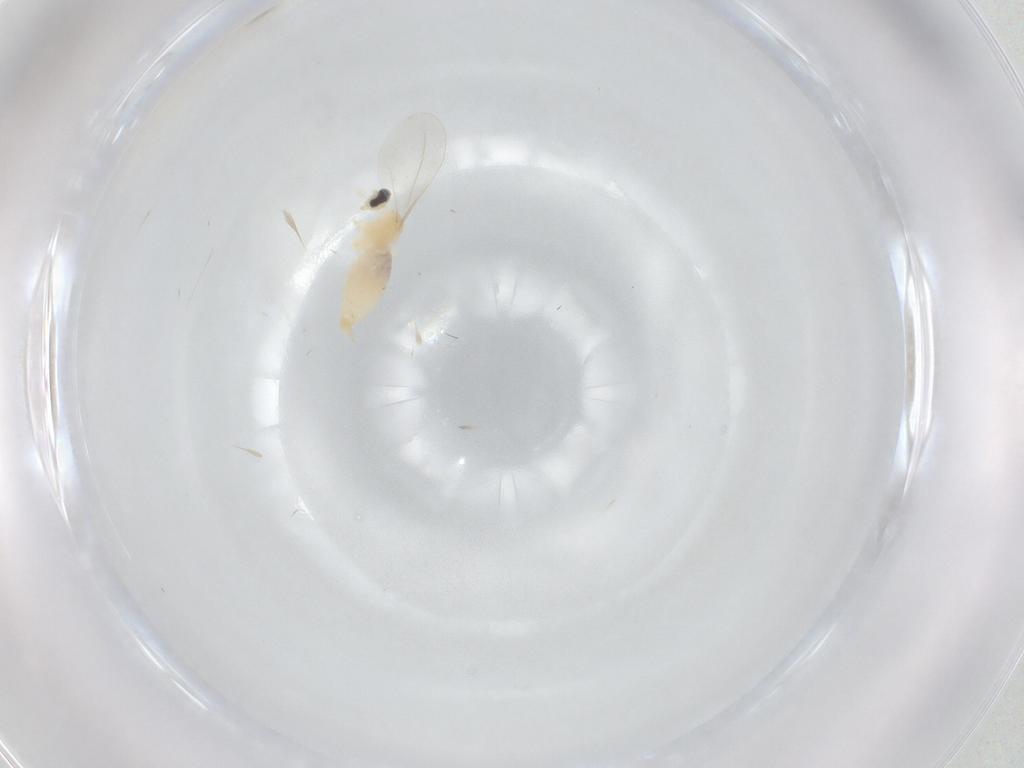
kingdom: Animalia
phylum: Arthropoda
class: Insecta
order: Diptera
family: Cecidomyiidae
